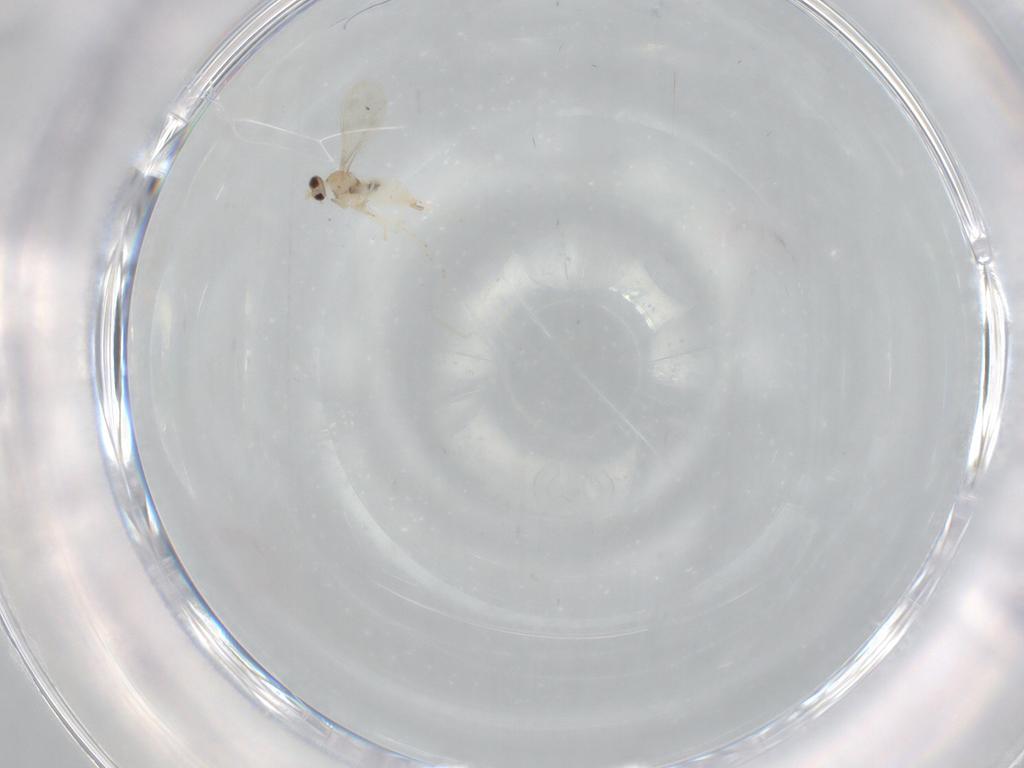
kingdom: Animalia
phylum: Arthropoda
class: Insecta
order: Diptera
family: Cecidomyiidae
